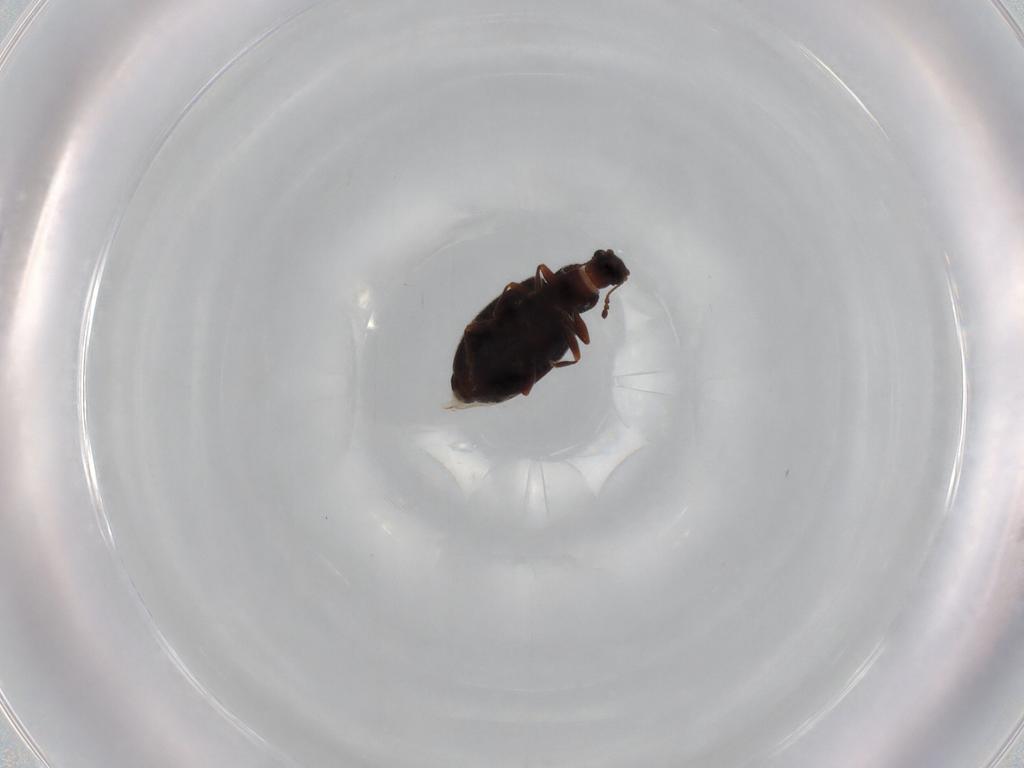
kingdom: Animalia
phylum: Arthropoda
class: Insecta
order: Coleoptera
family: Latridiidae
